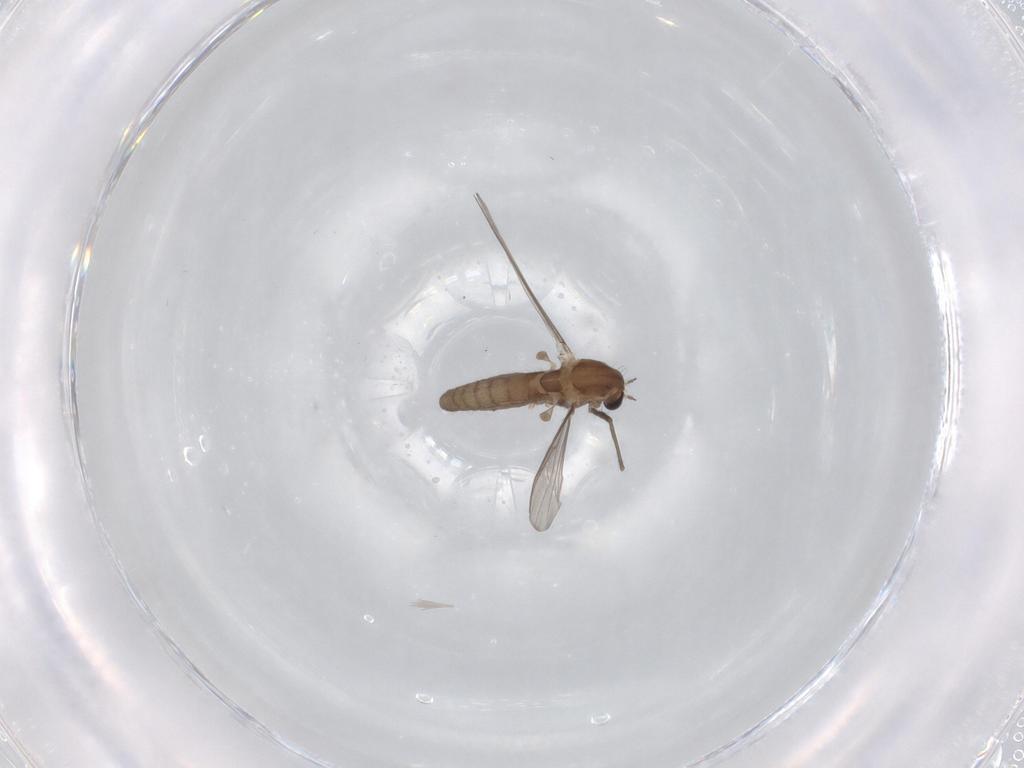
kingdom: Animalia
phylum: Arthropoda
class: Insecta
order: Diptera
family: Chironomidae
